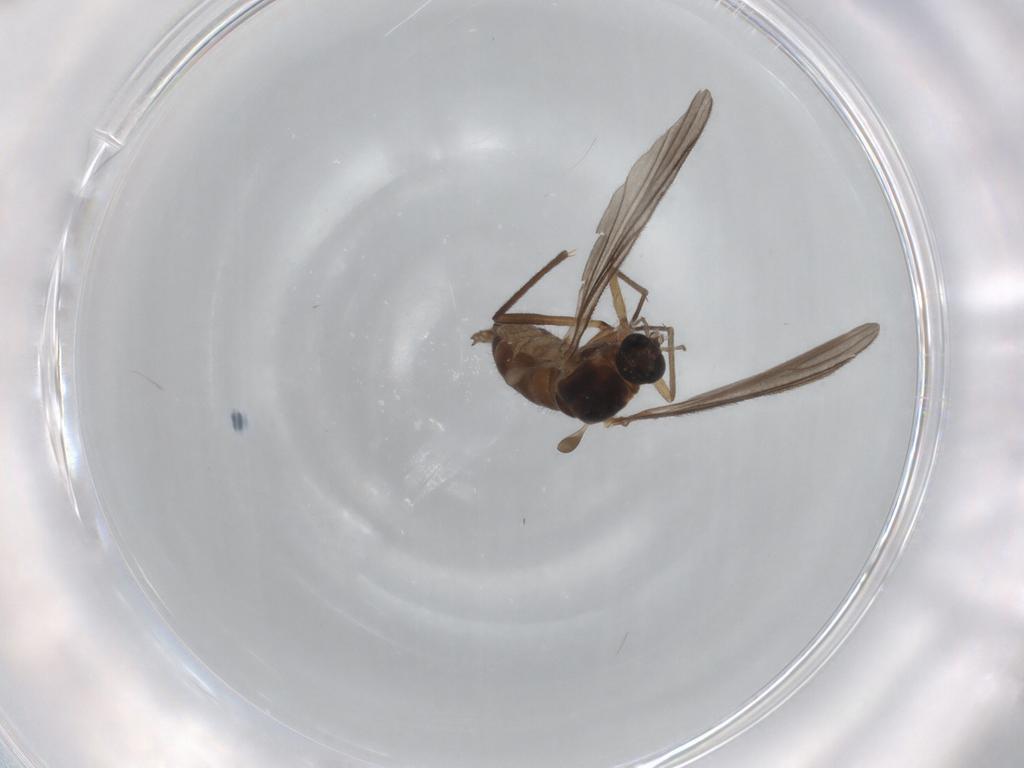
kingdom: Animalia
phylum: Arthropoda
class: Insecta
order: Diptera
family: Sciaridae
